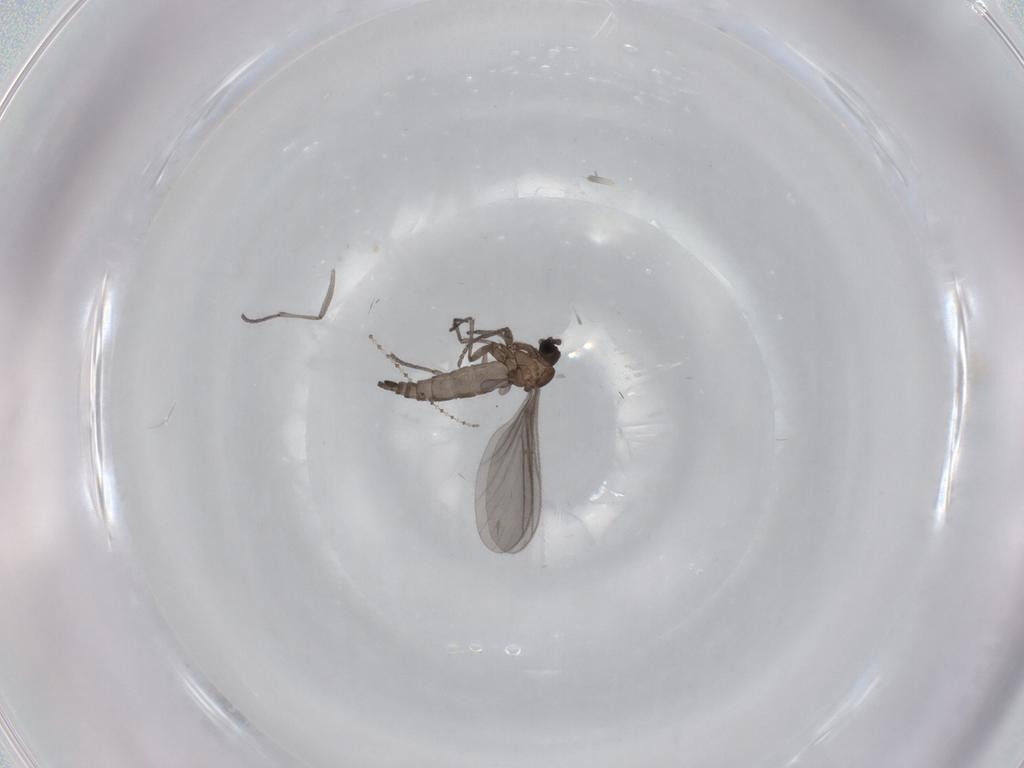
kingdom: Animalia
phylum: Arthropoda
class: Insecta
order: Diptera
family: Sciaridae
